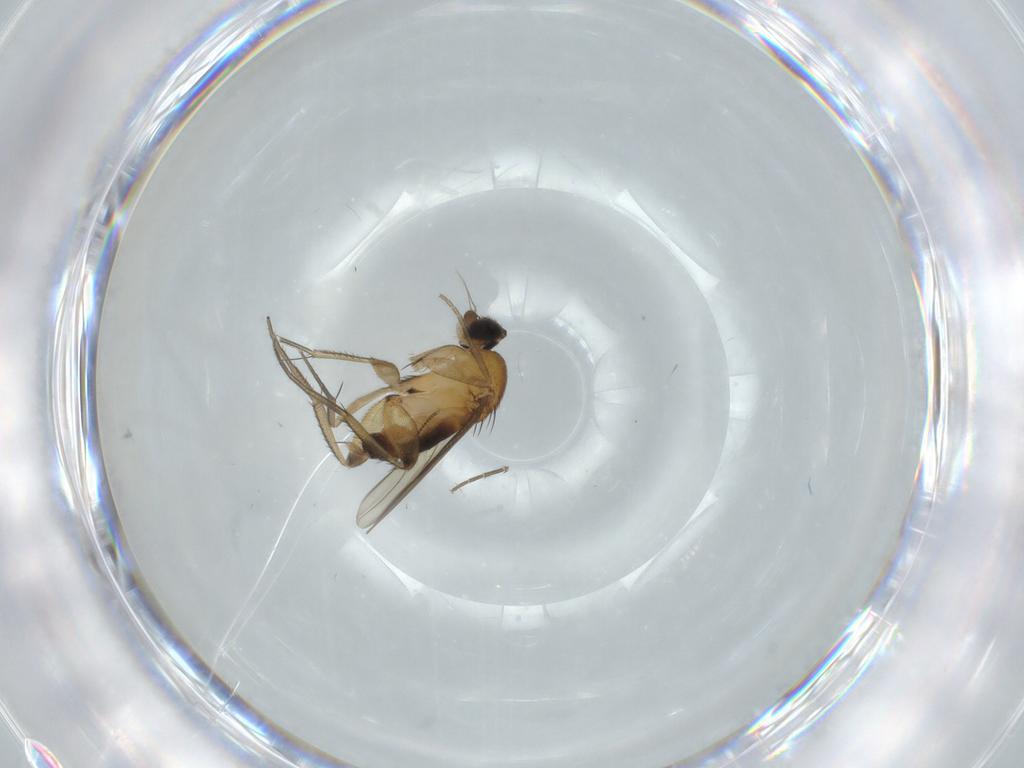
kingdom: Animalia
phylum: Arthropoda
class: Insecta
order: Diptera
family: Phoridae
